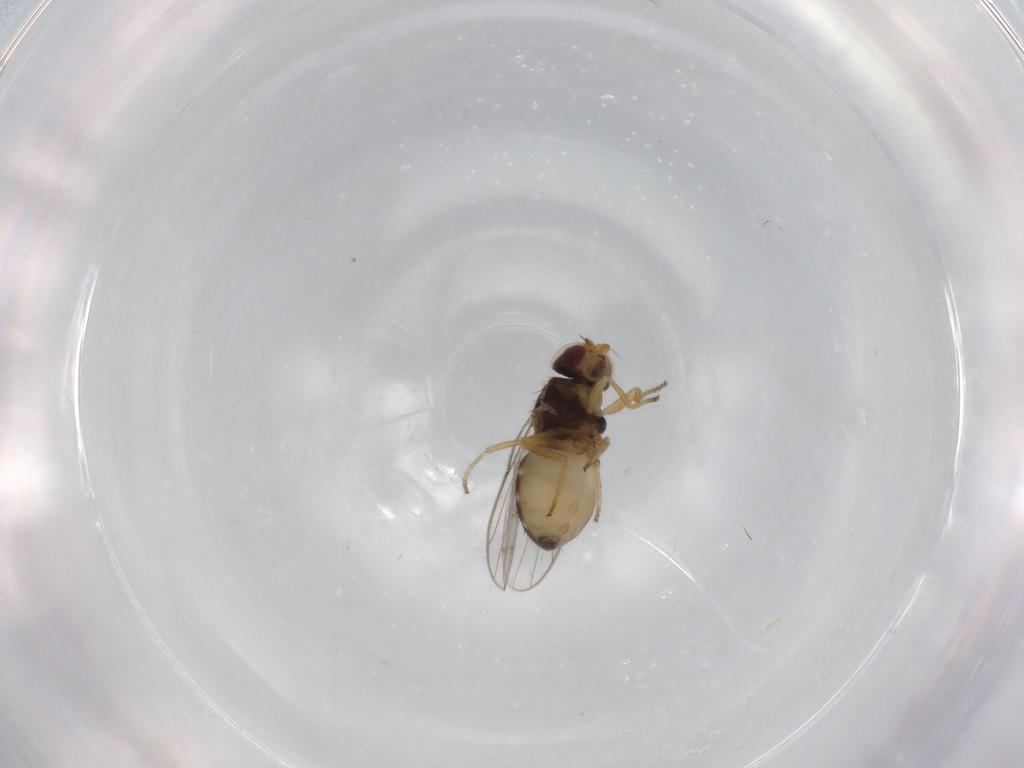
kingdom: Animalia
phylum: Arthropoda
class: Insecta
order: Diptera
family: Chloropidae
